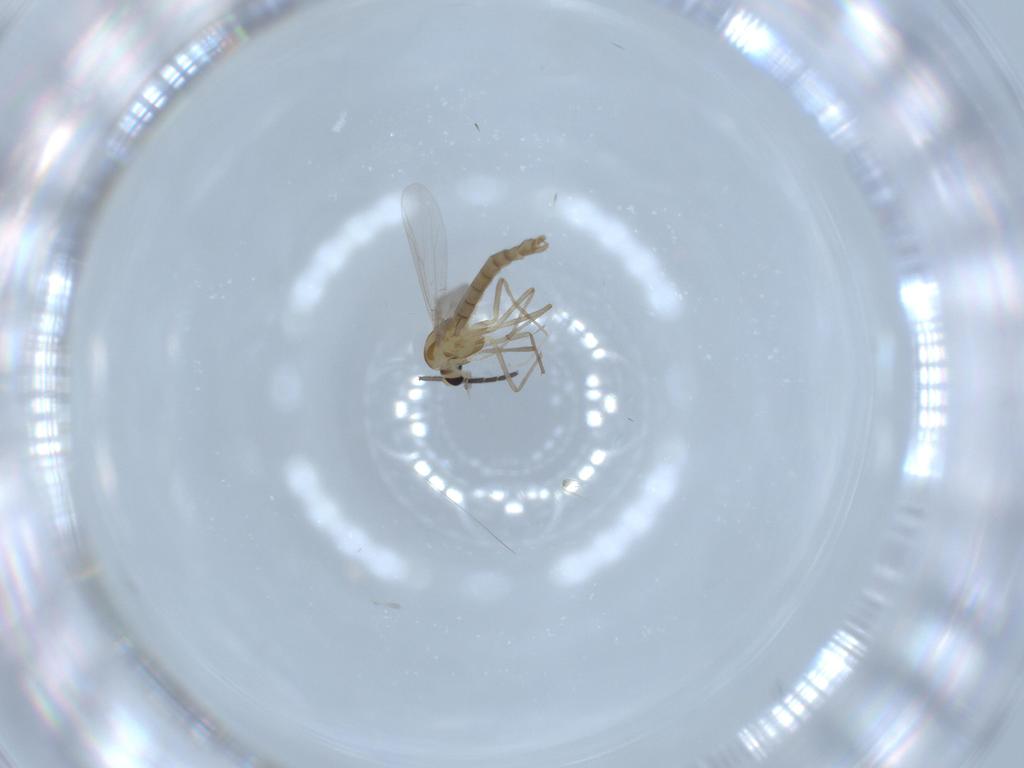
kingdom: Animalia
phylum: Arthropoda
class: Insecta
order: Diptera
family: Chironomidae
